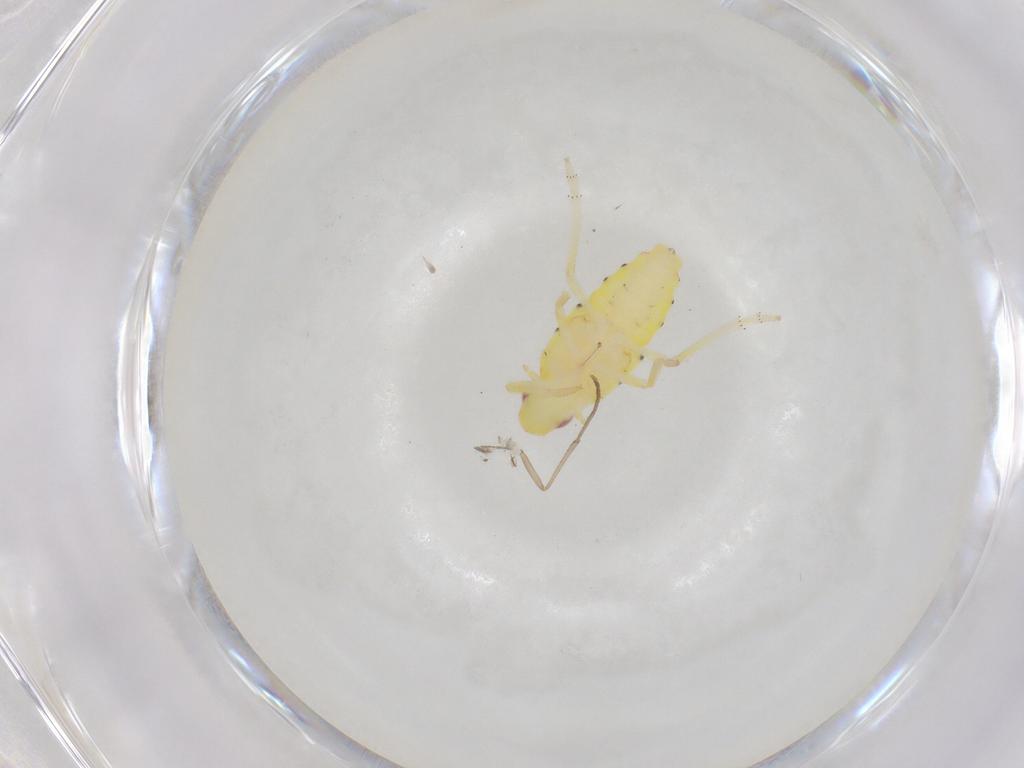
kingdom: Animalia
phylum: Arthropoda
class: Insecta
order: Hemiptera
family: Tropiduchidae
